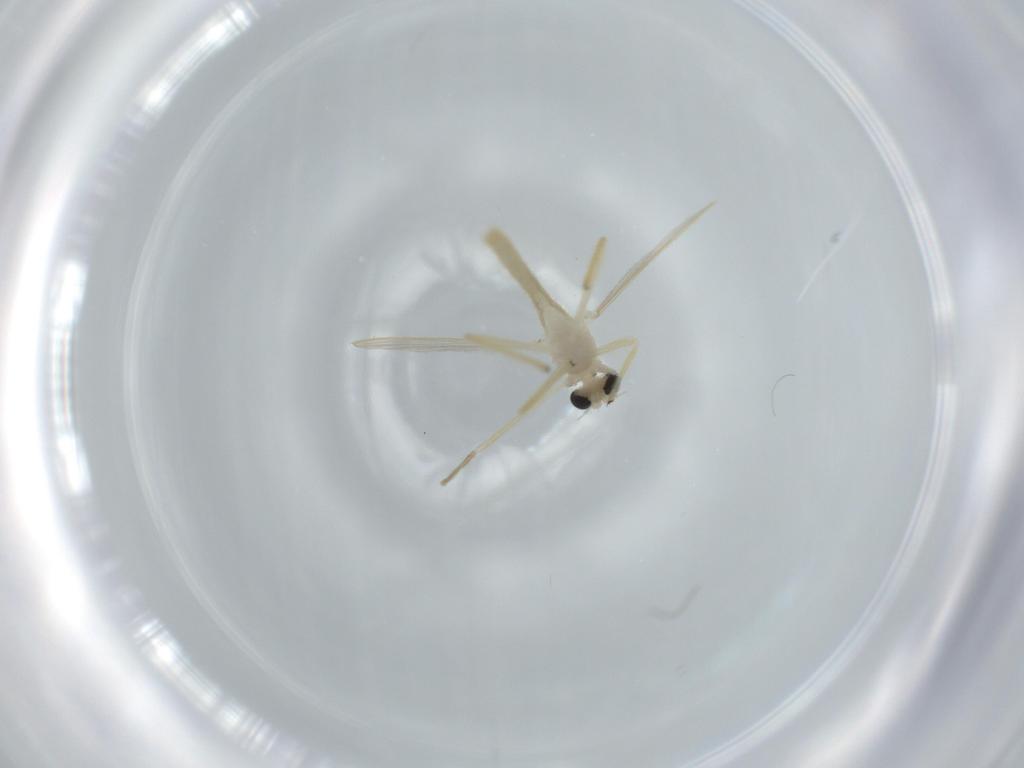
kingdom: Animalia
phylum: Arthropoda
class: Insecta
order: Diptera
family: Chironomidae
